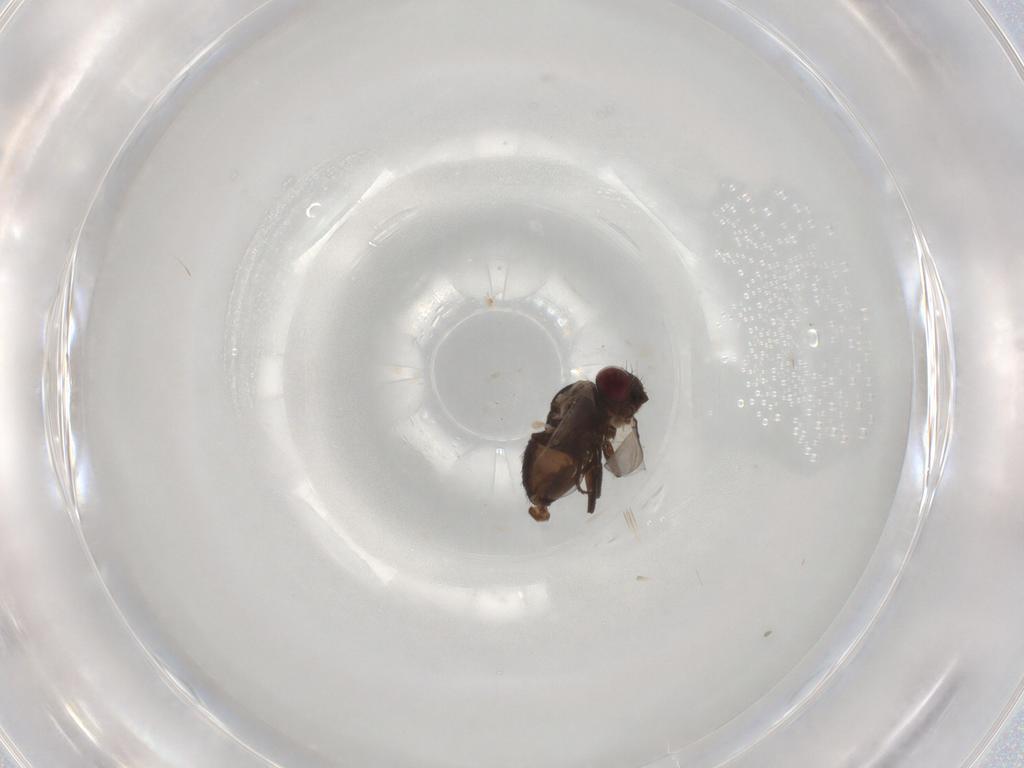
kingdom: Animalia
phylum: Arthropoda
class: Insecta
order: Diptera
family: Agromyzidae
